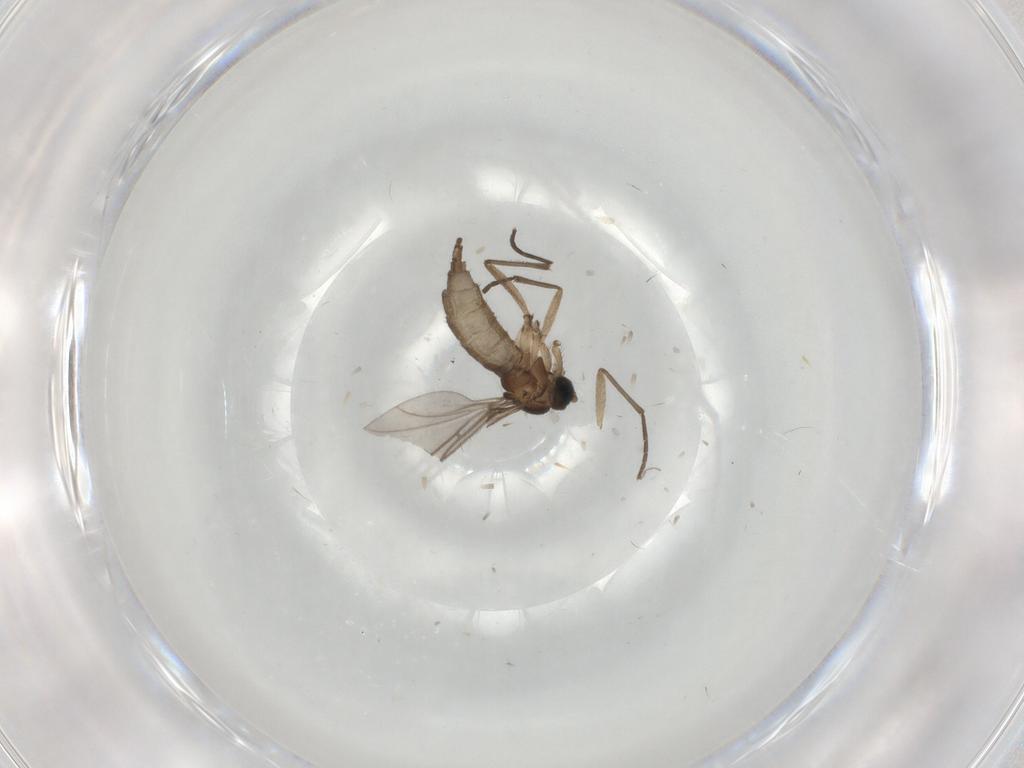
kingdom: Animalia
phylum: Arthropoda
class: Insecta
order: Diptera
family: Sciaridae
